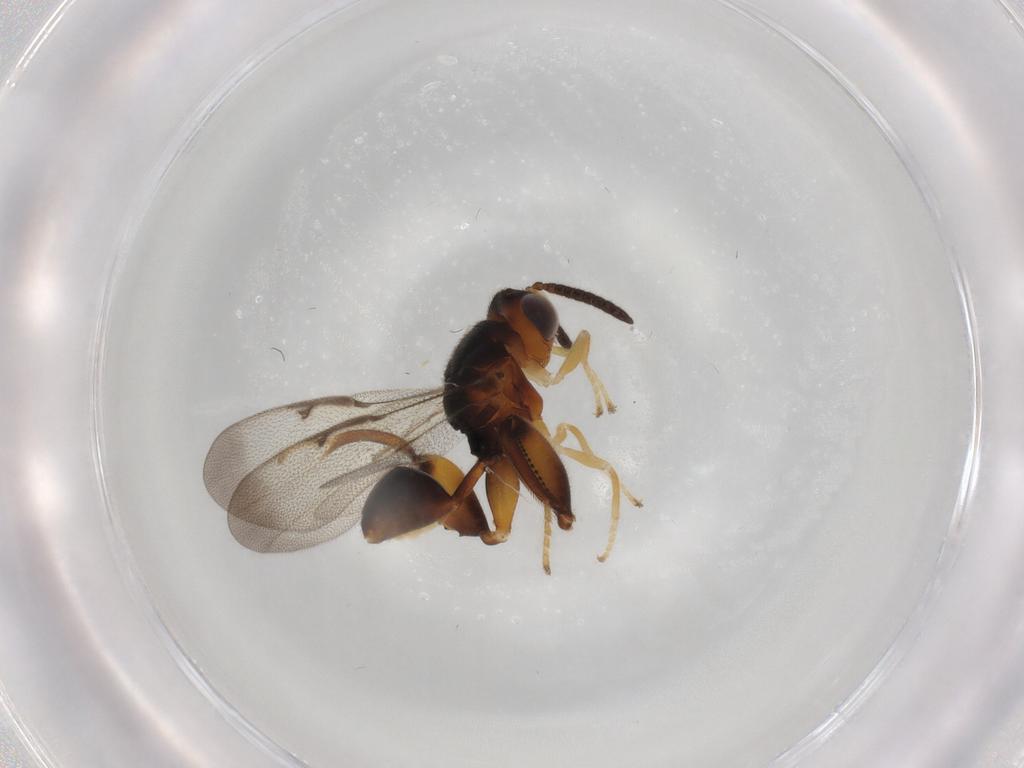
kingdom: Animalia
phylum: Arthropoda
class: Insecta
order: Hymenoptera
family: Chalcididae
